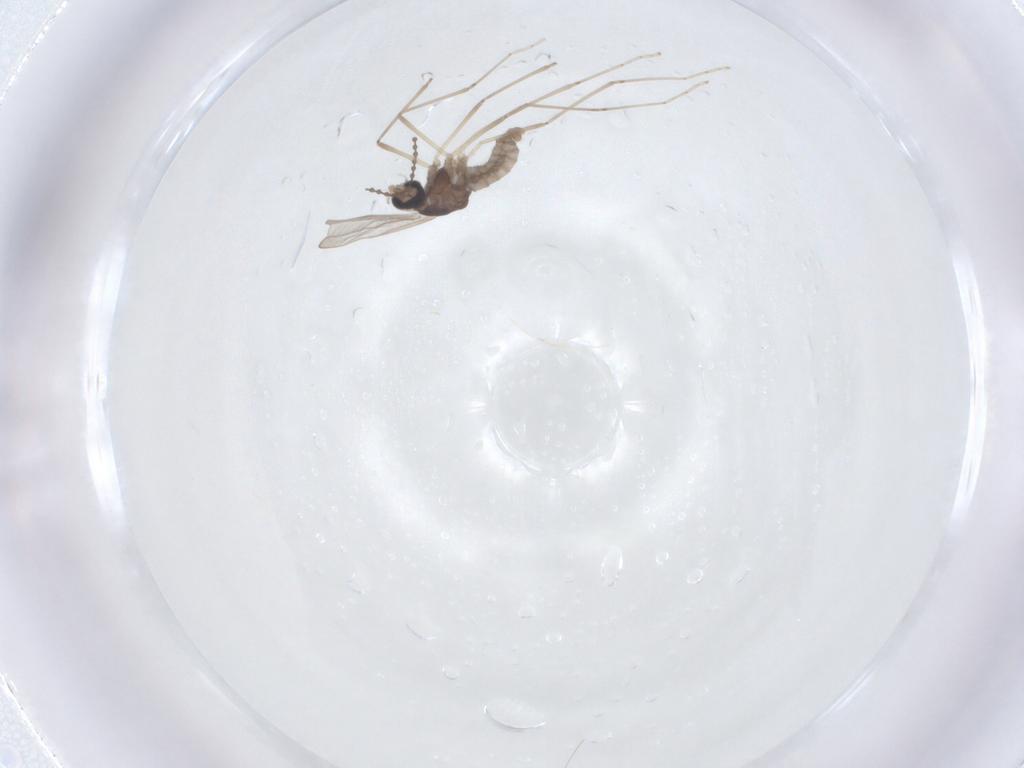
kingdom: Animalia
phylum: Arthropoda
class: Insecta
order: Diptera
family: Cecidomyiidae
